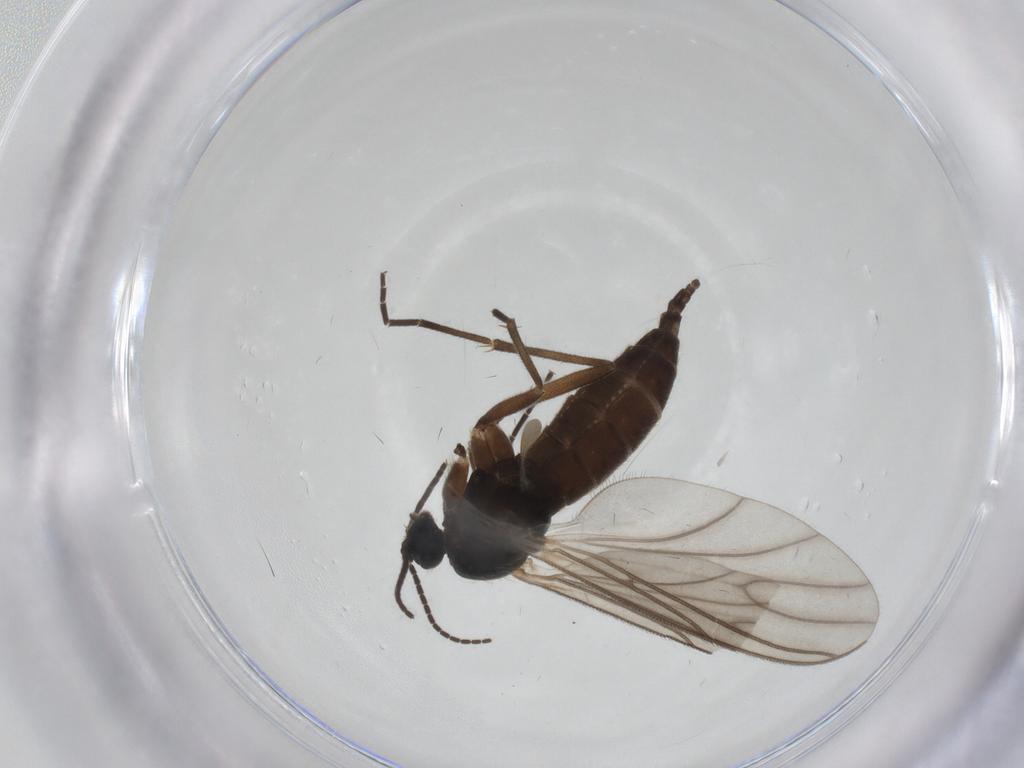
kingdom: Animalia
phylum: Arthropoda
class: Insecta
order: Diptera
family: Sciaridae
